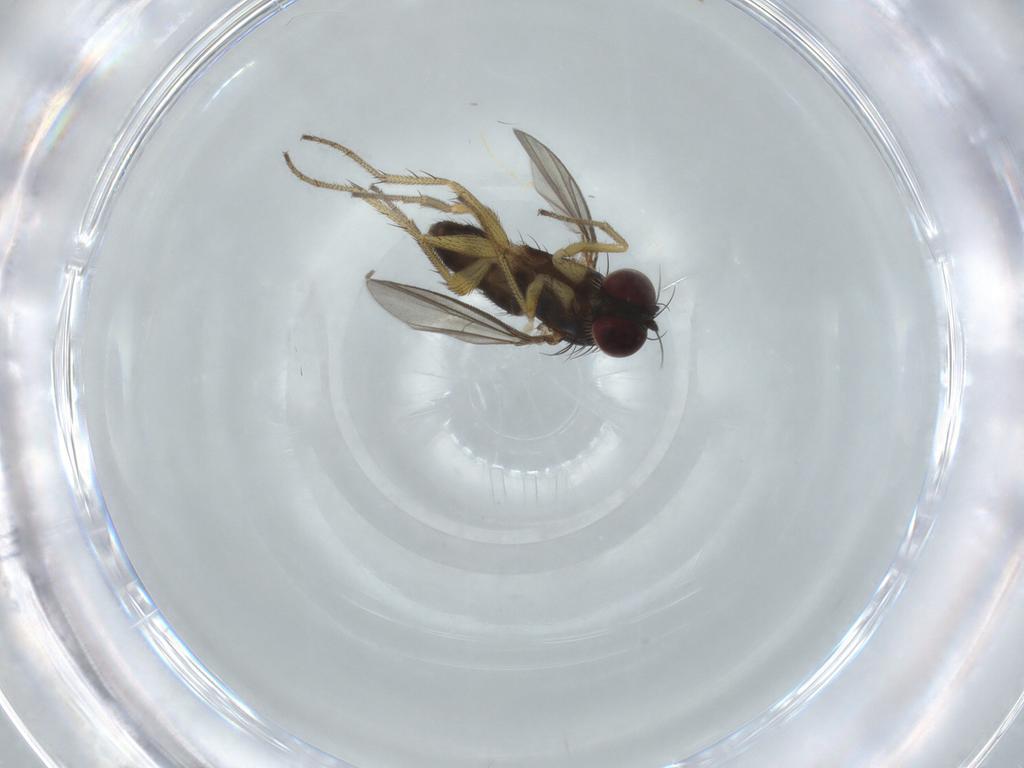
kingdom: Animalia
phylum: Arthropoda
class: Insecta
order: Diptera
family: Dolichopodidae
